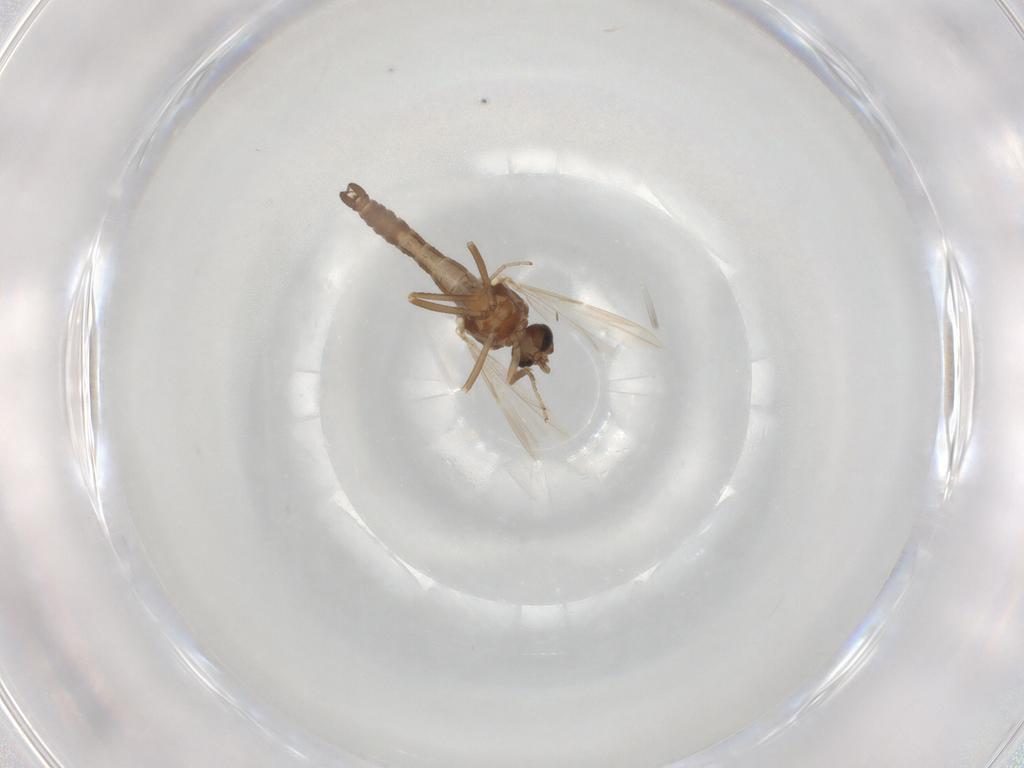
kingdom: Animalia
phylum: Arthropoda
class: Insecta
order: Diptera
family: Ceratopogonidae
